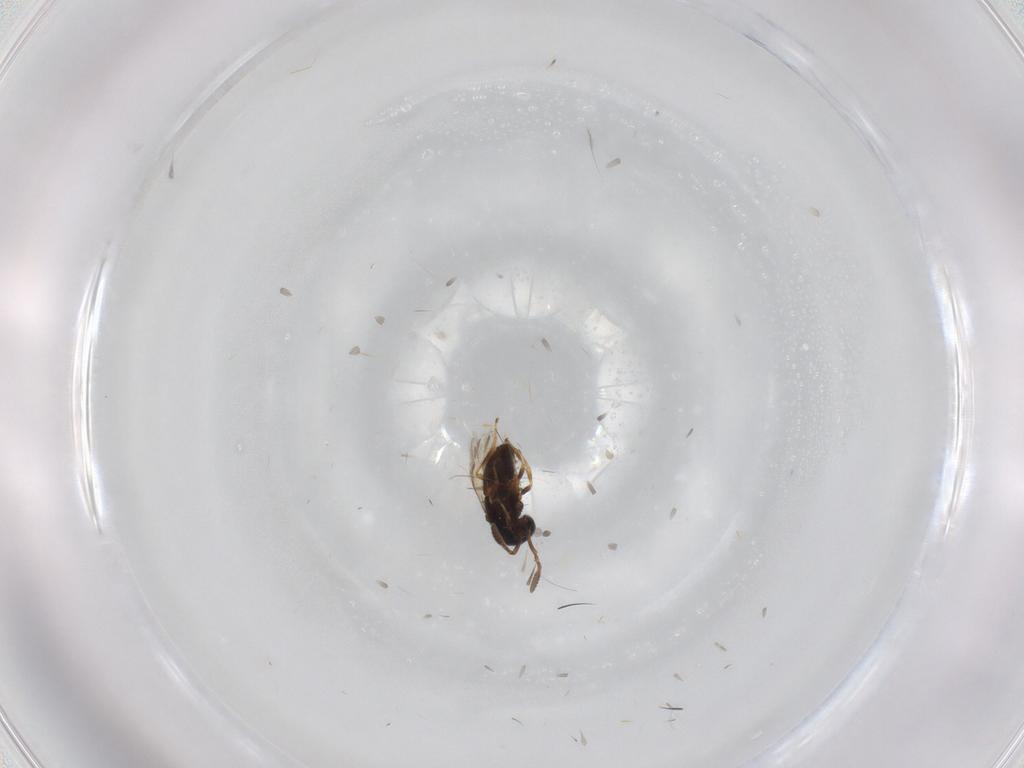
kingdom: Animalia
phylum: Arthropoda
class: Insecta
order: Hymenoptera
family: Scelionidae
